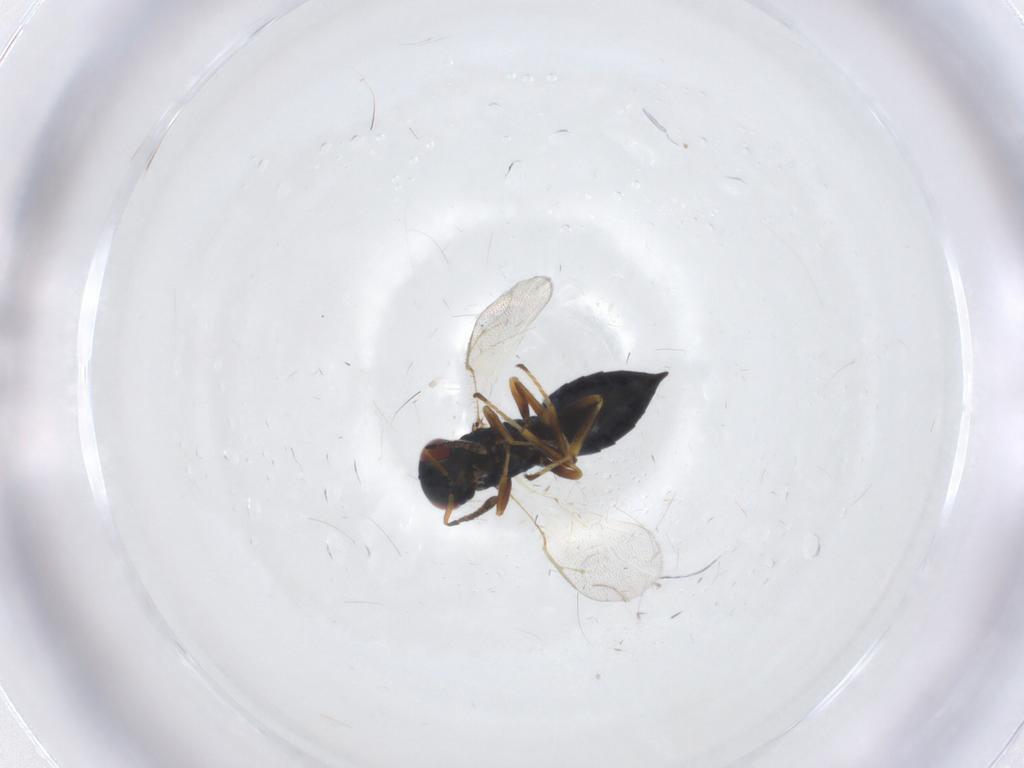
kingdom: Animalia
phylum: Arthropoda
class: Insecta
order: Hymenoptera
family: Pteromalidae
